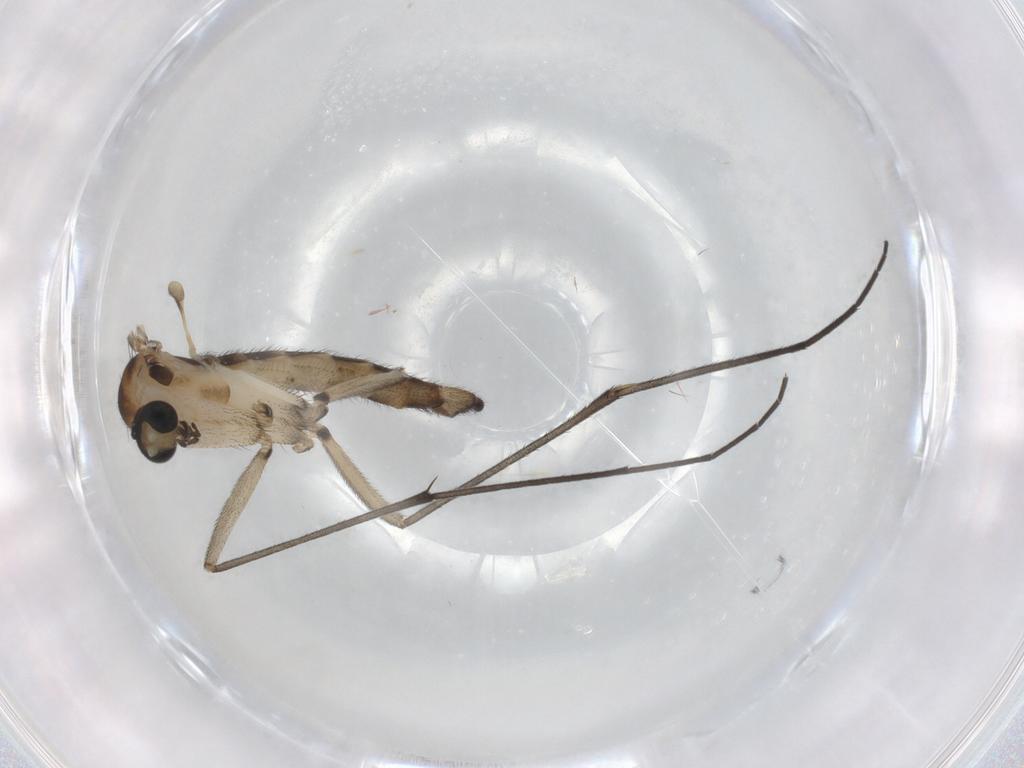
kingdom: Animalia
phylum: Arthropoda
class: Insecta
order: Diptera
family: Sciaridae
